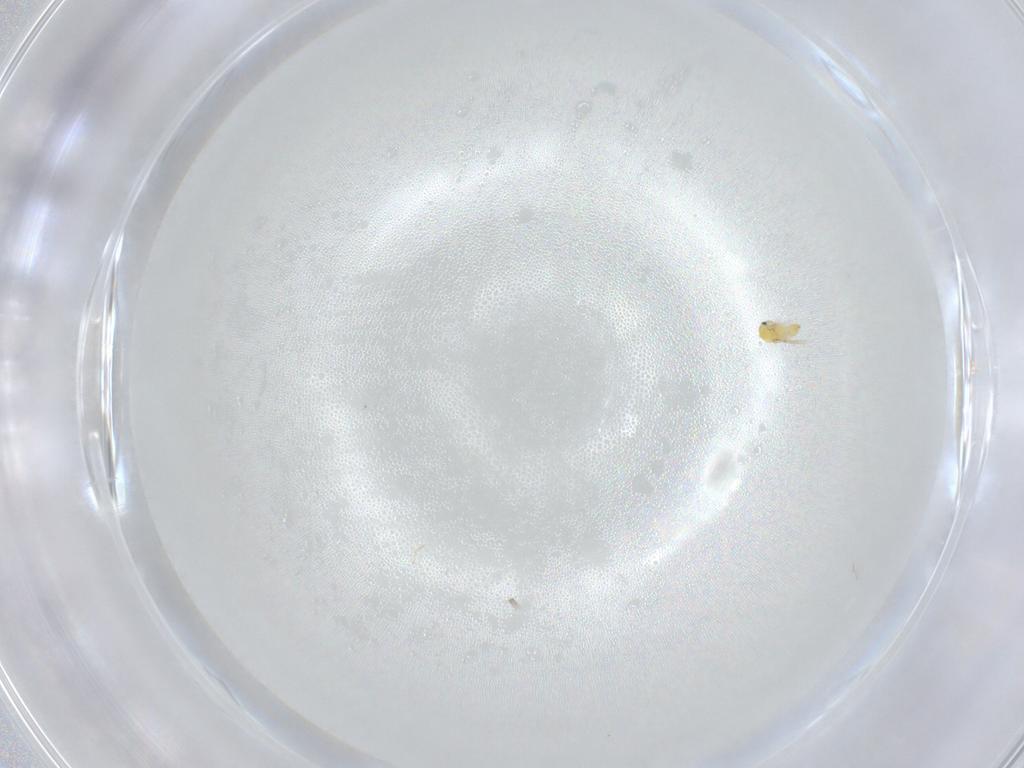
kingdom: Animalia
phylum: Arthropoda
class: Insecta
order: Hymenoptera
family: Trichogrammatidae
